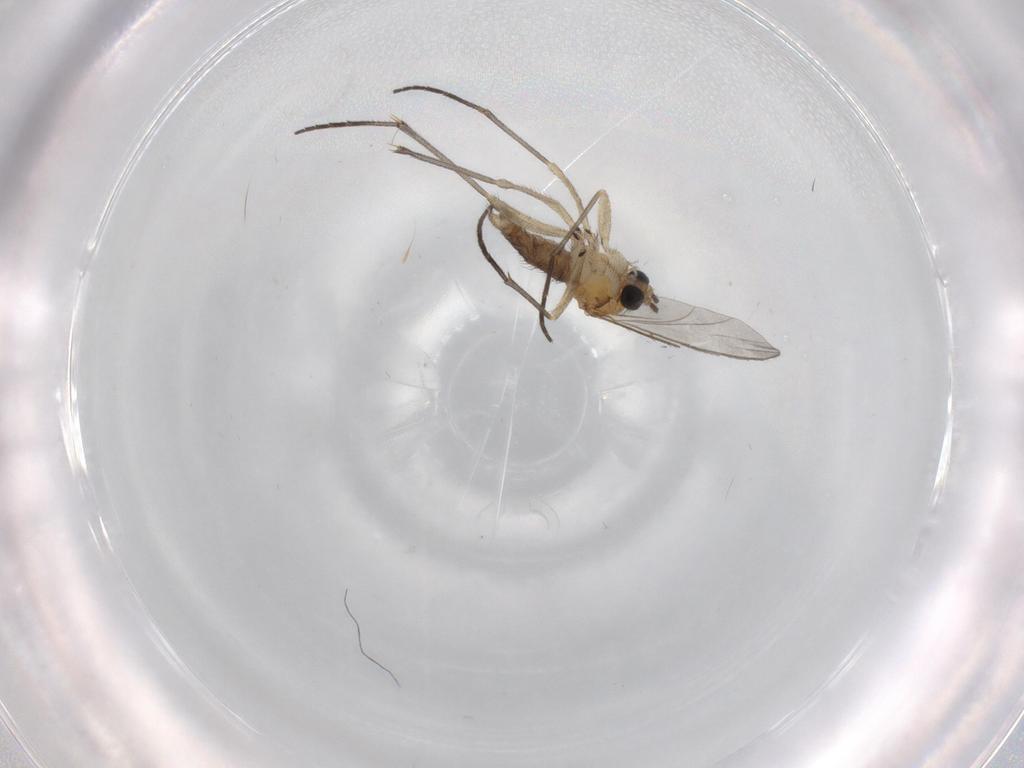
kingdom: Animalia
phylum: Arthropoda
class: Insecta
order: Diptera
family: Sciaridae
